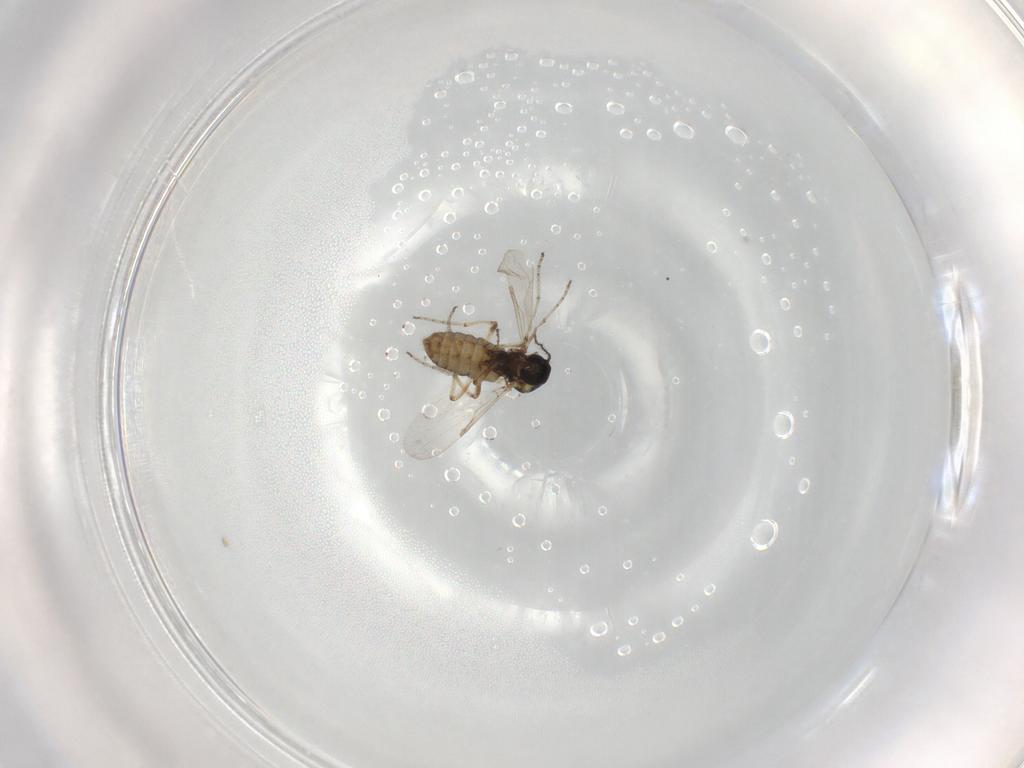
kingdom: Animalia
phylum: Arthropoda
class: Insecta
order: Diptera
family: Ceratopogonidae
